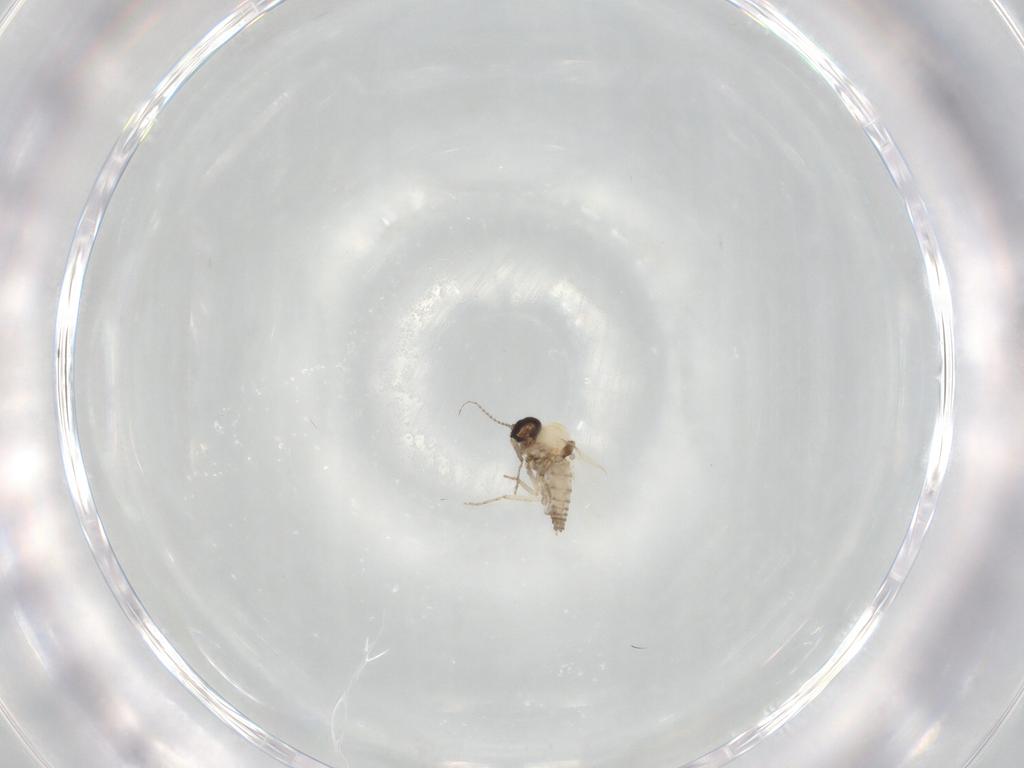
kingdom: Animalia
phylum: Arthropoda
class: Insecta
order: Diptera
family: Ceratopogonidae
